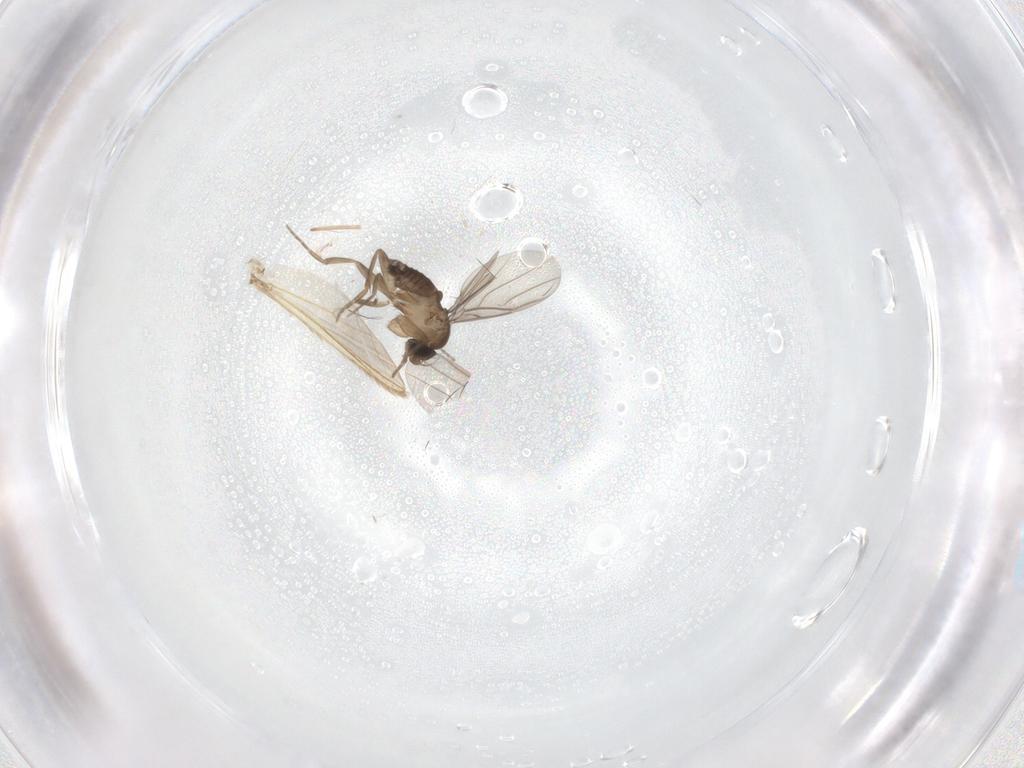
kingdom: Animalia
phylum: Arthropoda
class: Insecta
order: Diptera
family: Phoridae
